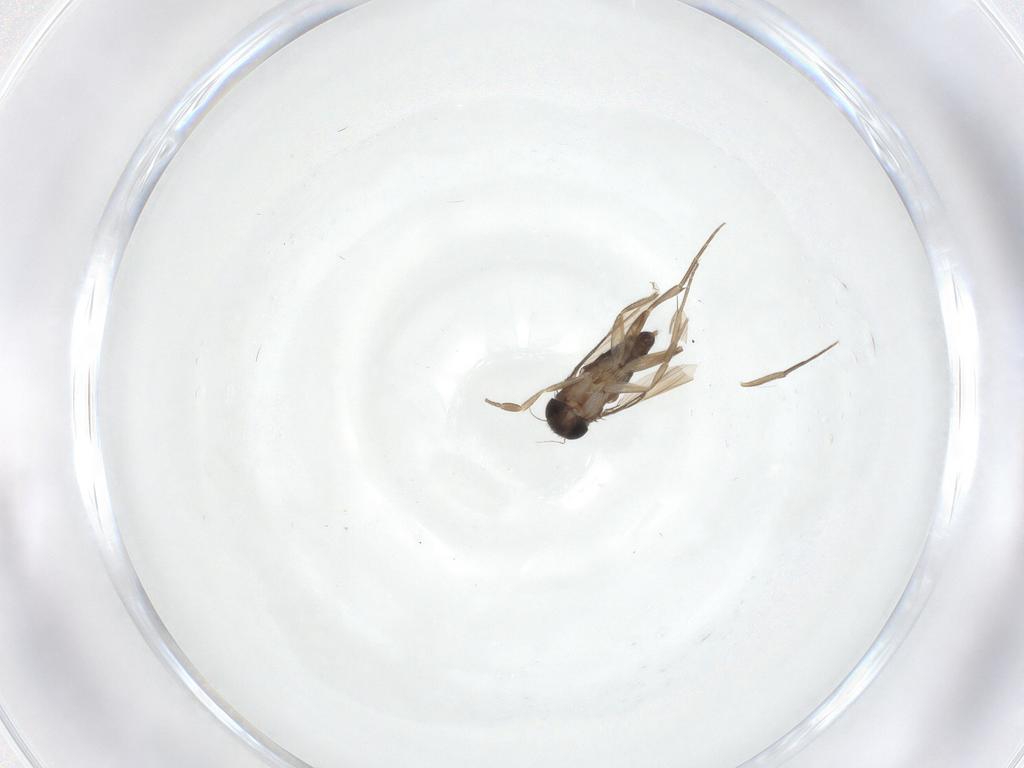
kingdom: Animalia
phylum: Arthropoda
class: Insecta
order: Diptera
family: Phoridae
